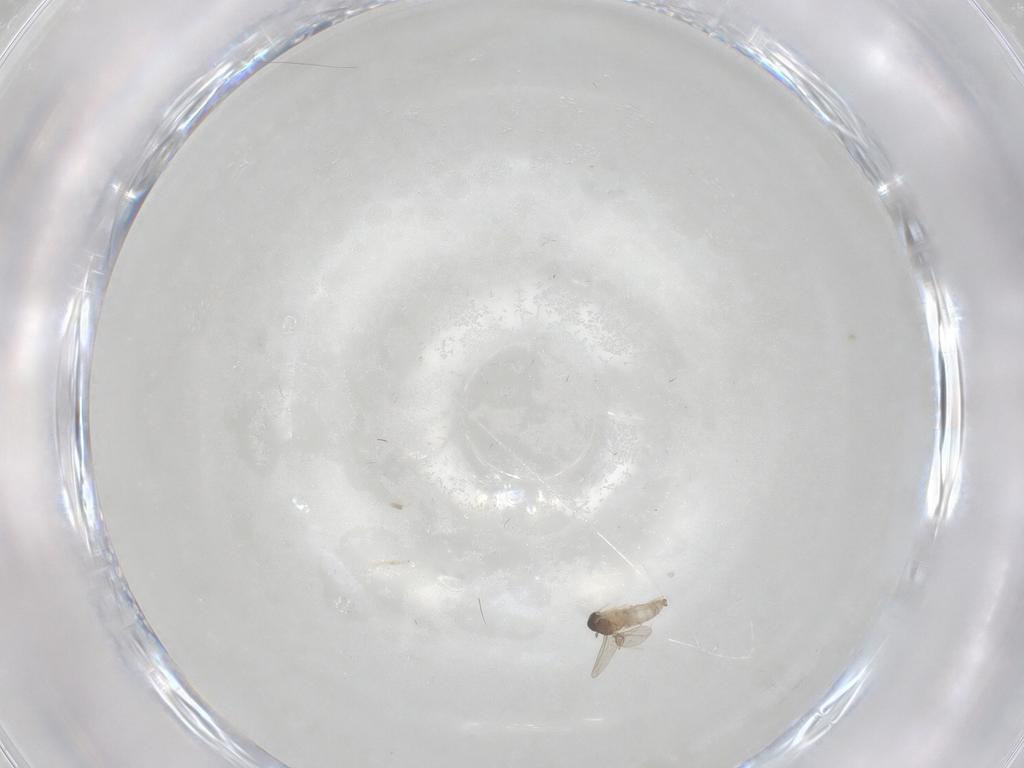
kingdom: Animalia
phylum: Arthropoda
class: Insecta
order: Diptera
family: Cecidomyiidae
